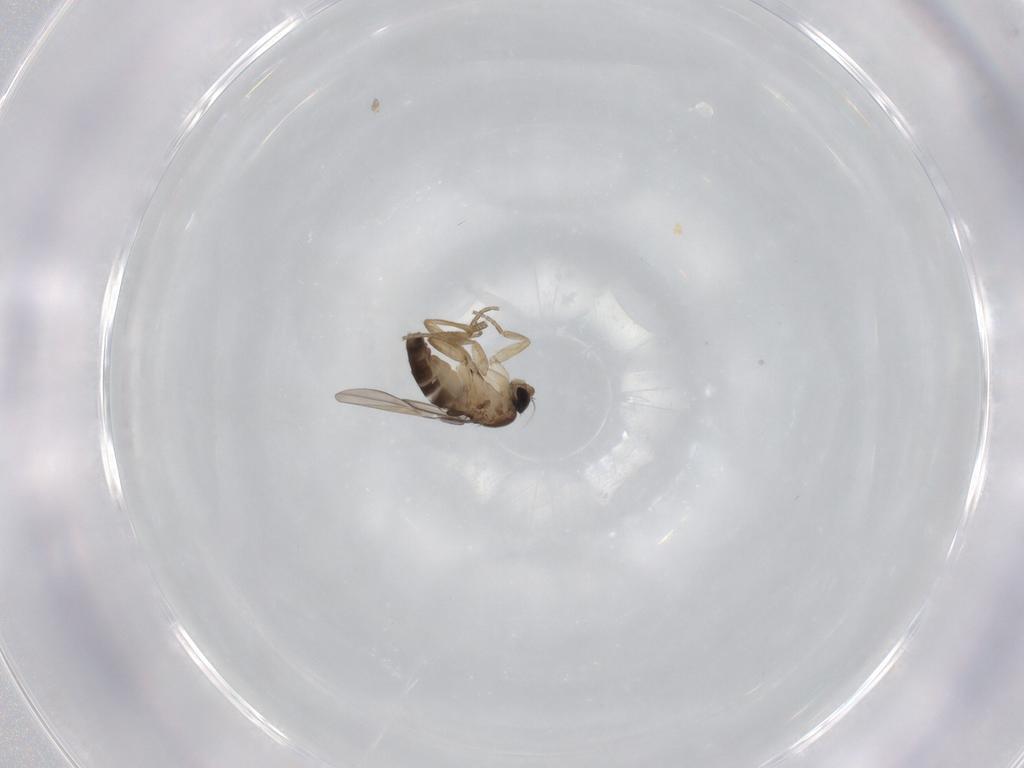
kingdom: Animalia
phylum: Arthropoda
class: Insecta
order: Diptera
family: Phoridae
